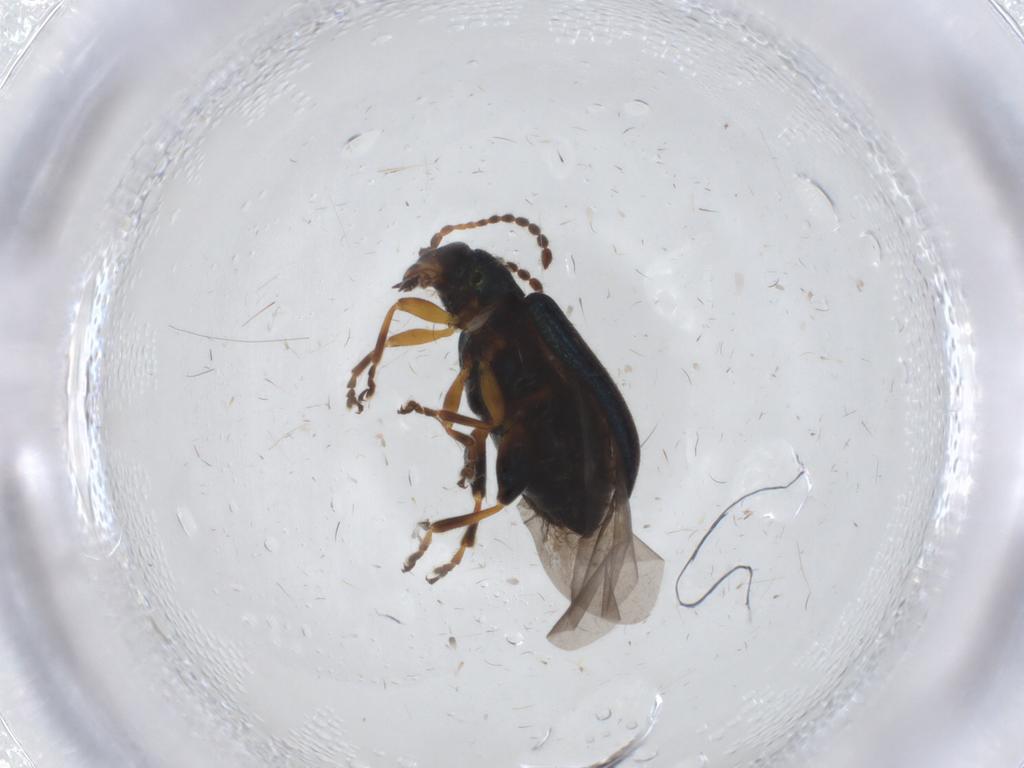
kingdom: Animalia
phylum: Arthropoda
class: Insecta
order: Coleoptera
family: Chrysomelidae
